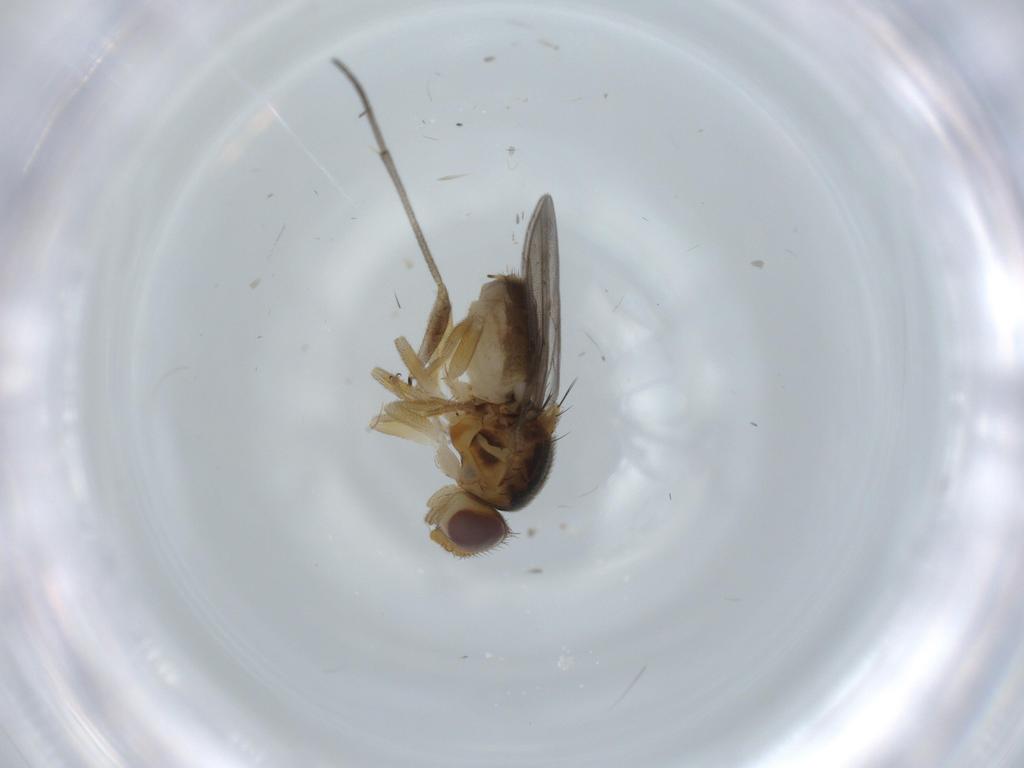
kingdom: Animalia
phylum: Arthropoda
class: Insecta
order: Diptera
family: Chloropidae
